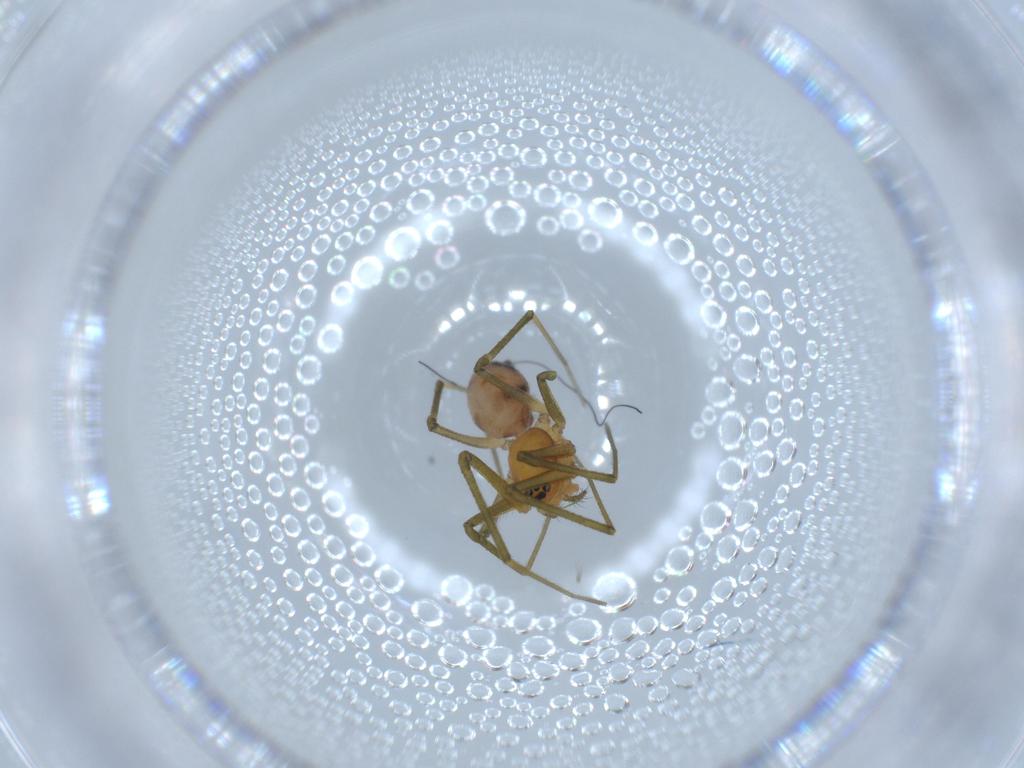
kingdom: Animalia
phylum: Arthropoda
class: Arachnida
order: Araneae
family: Linyphiidae
